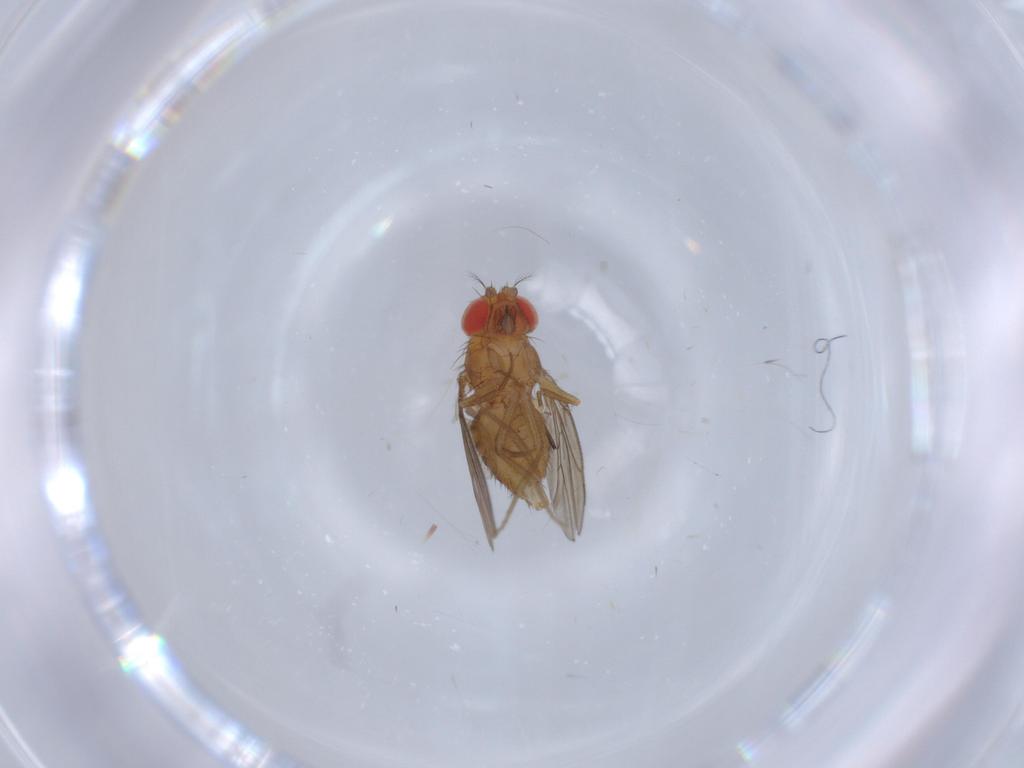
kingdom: Animalia
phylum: Arthropoda
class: Insecta
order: Diptera
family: Drosophilidae
